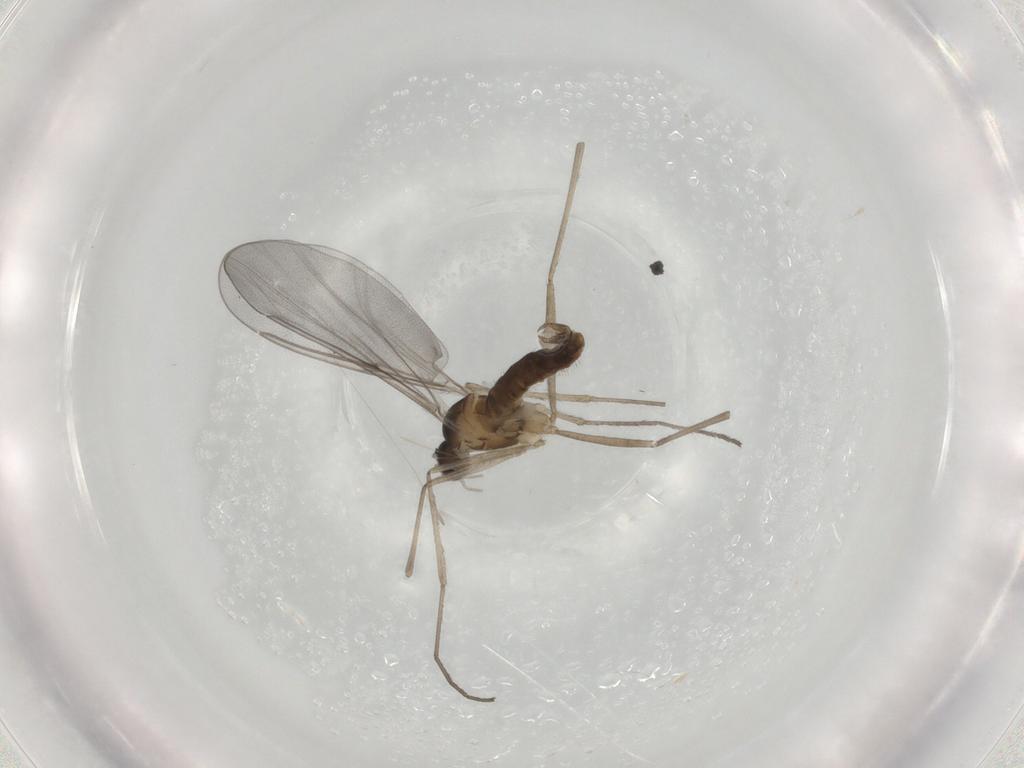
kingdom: Animalia
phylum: Arthropoda
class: Insecta
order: Diptera
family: Cecidomyiidae
